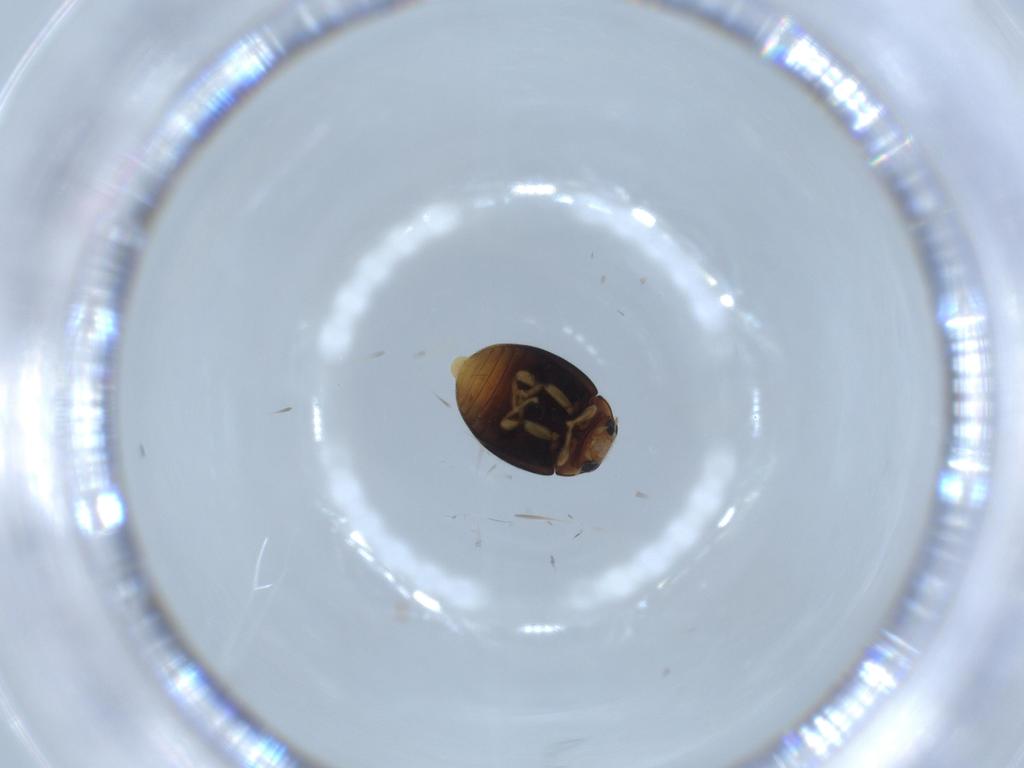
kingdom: Animalia
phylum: Arthropoda
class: Insecta
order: Coleoptera
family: Coccinellidae
